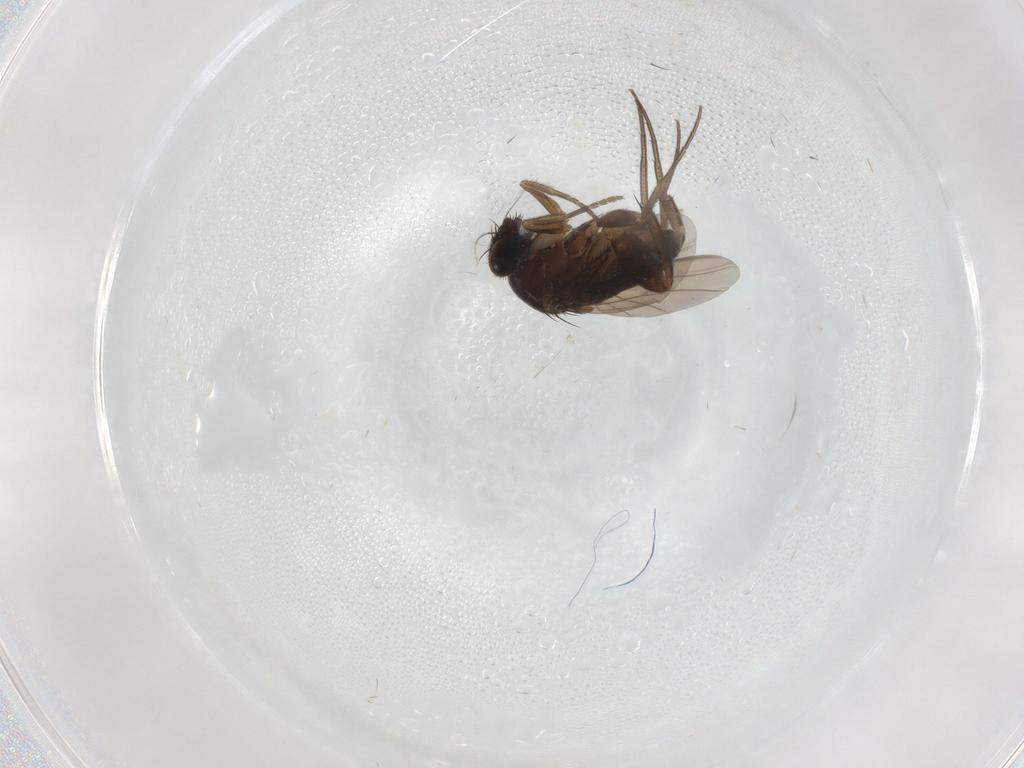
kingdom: Animalia
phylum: Arthropoda
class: Insecta
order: Diptera
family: Phoridae
